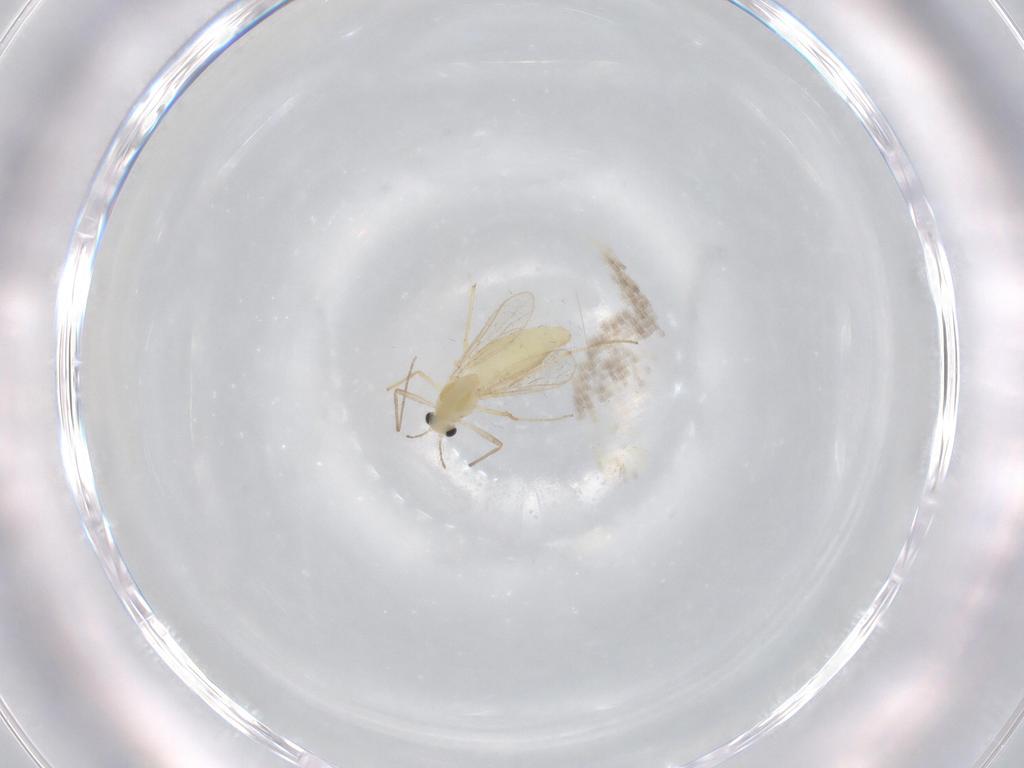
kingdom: Animalia
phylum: Arthropoda
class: Insecta
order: Diptera
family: Chironomidae
